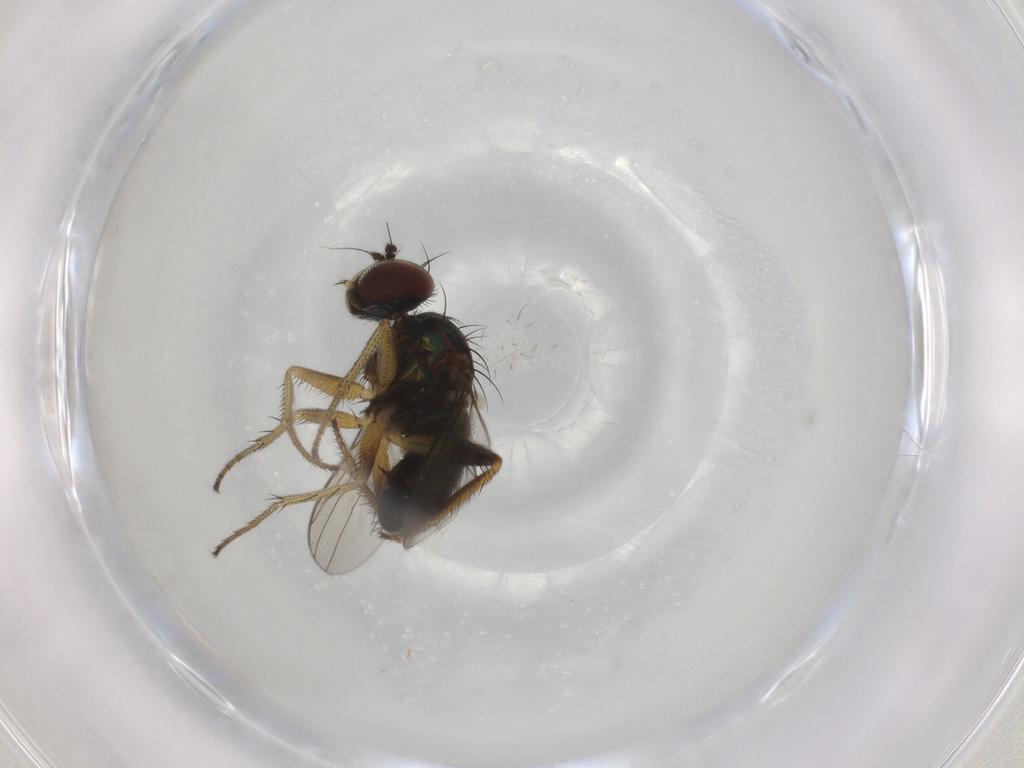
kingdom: Animalia
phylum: Arthropoda
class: Insecta
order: Diptera
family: Dolichopodidae
